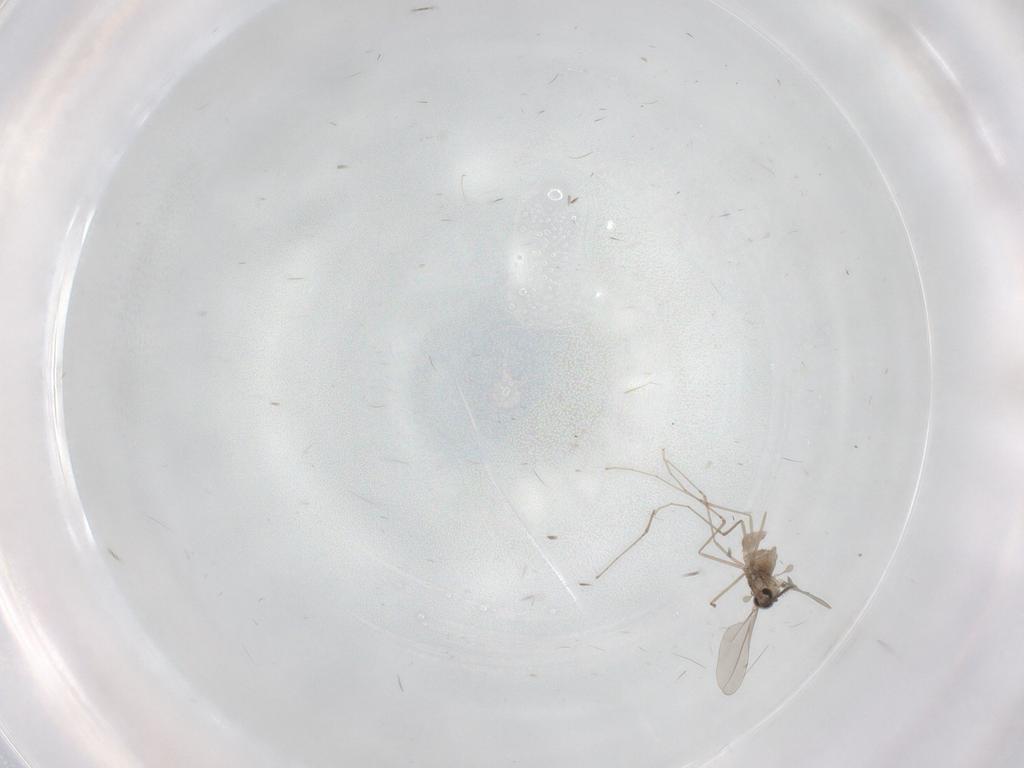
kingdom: Animalia
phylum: Arthropoda
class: Insecta
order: Diptera
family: Cecidomyiidae
